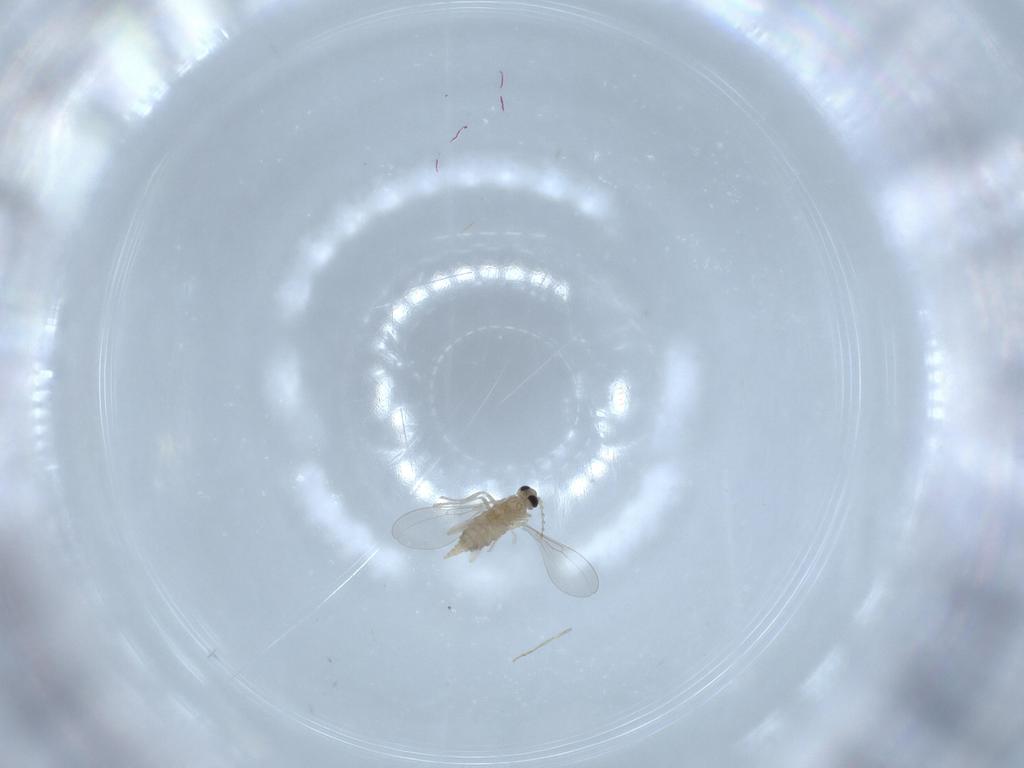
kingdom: Animalia
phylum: Arthropoda
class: Insecta
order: Diptera
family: Cecidomyiidae
